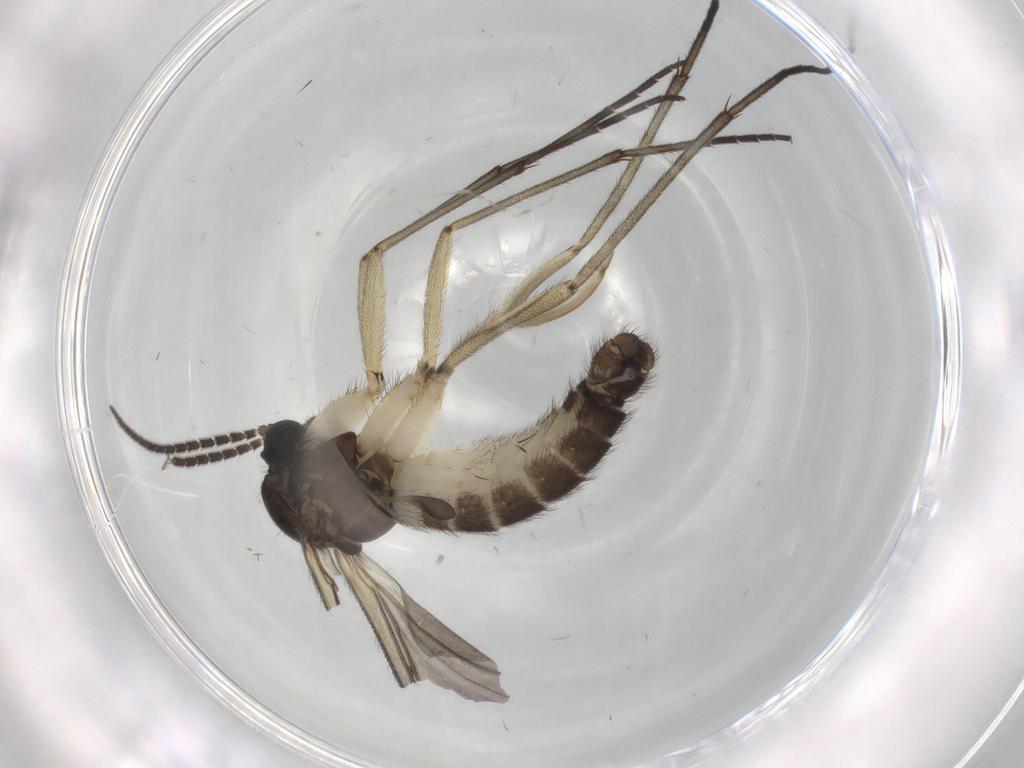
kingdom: Animalia
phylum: Arthropoda
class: Insecta
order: Diptera
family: Sciaridae
